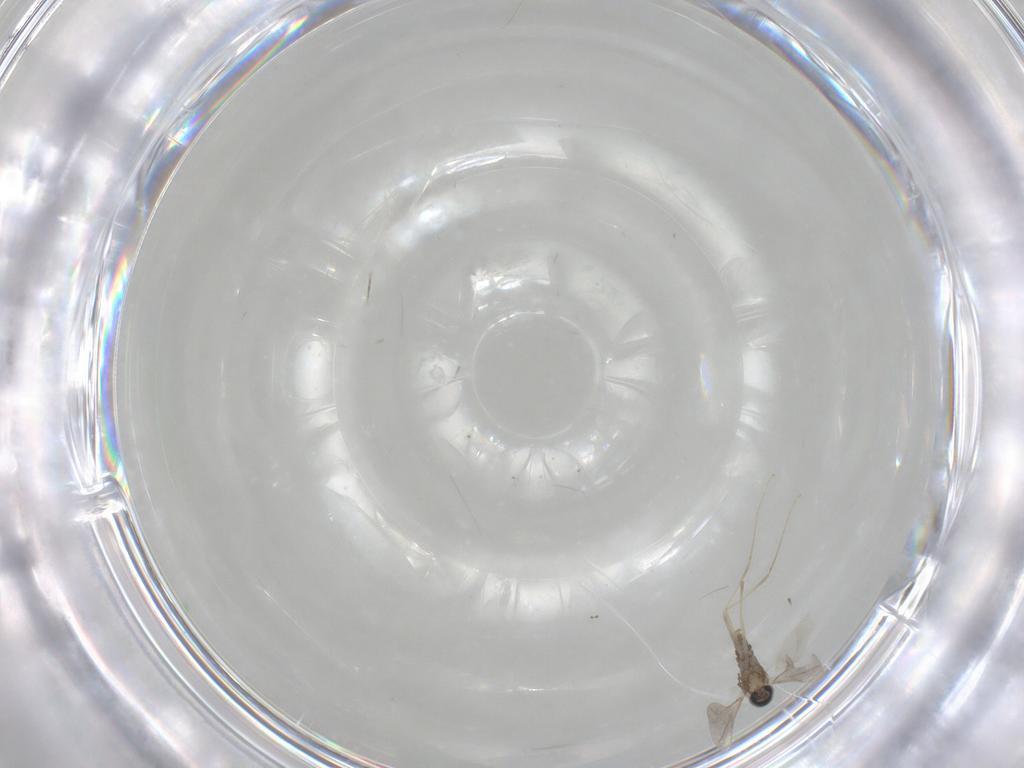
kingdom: Animalia
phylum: Arthropoda
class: Insecta
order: Diptera
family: Phoridae
